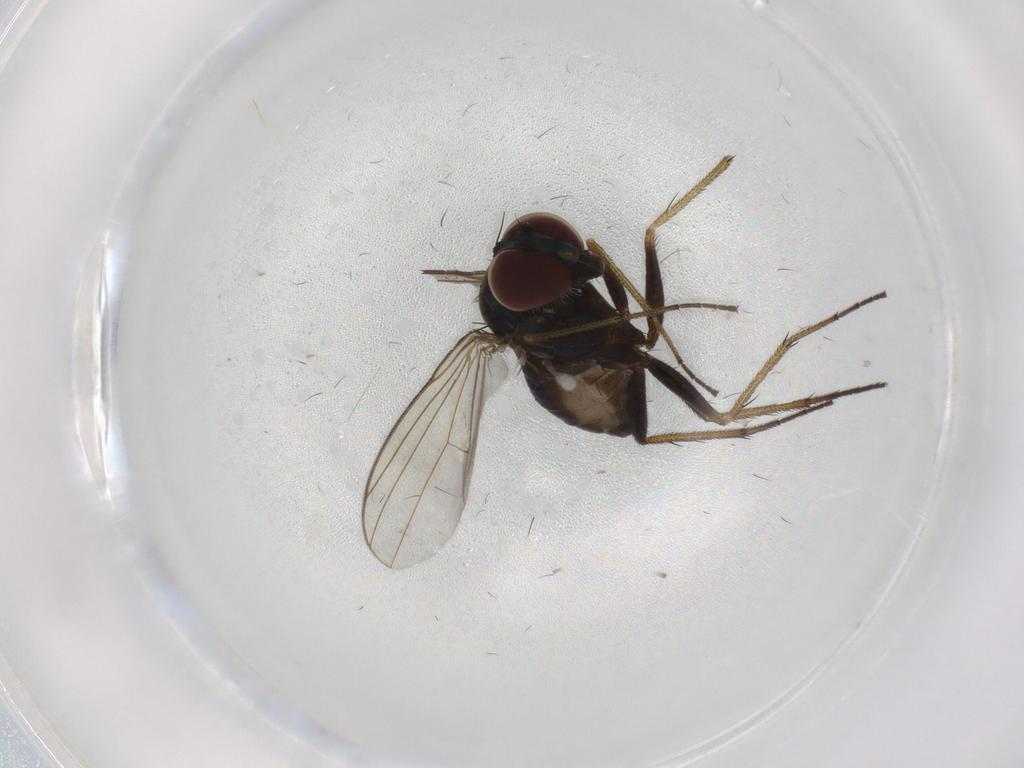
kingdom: Animalia
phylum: Arthropoda
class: Insecta
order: Diptera
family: Dolichopodidae
